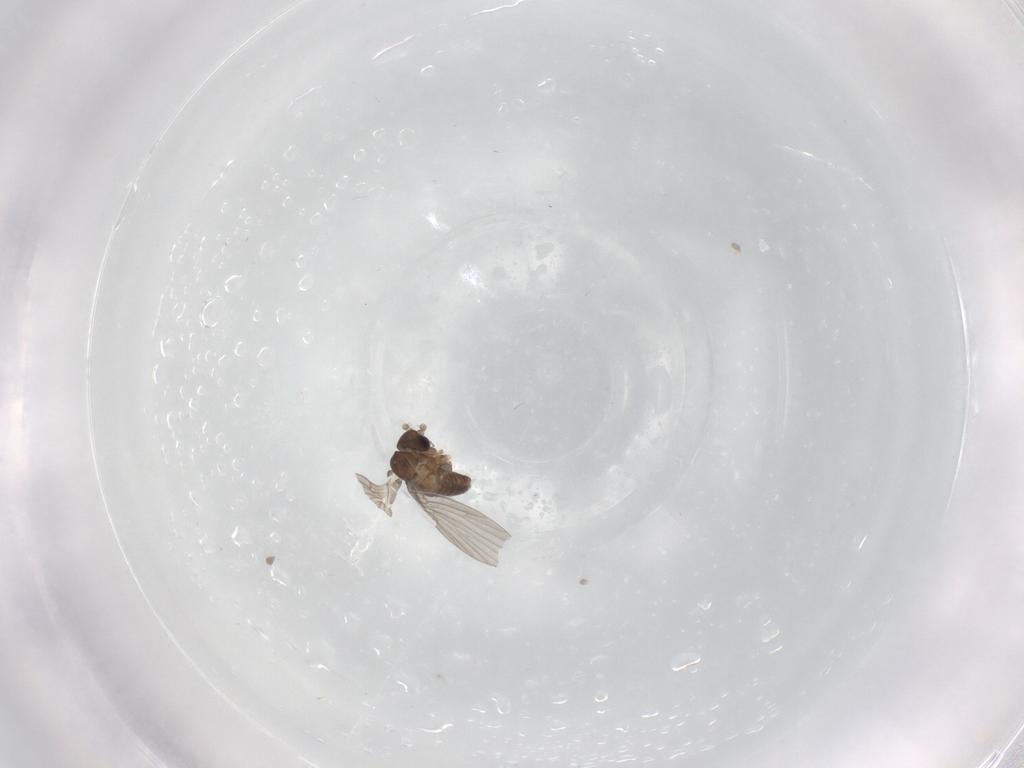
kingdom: Animalia
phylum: Arthropoda
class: Insecta
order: Diptera
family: Cecidomyiidae
